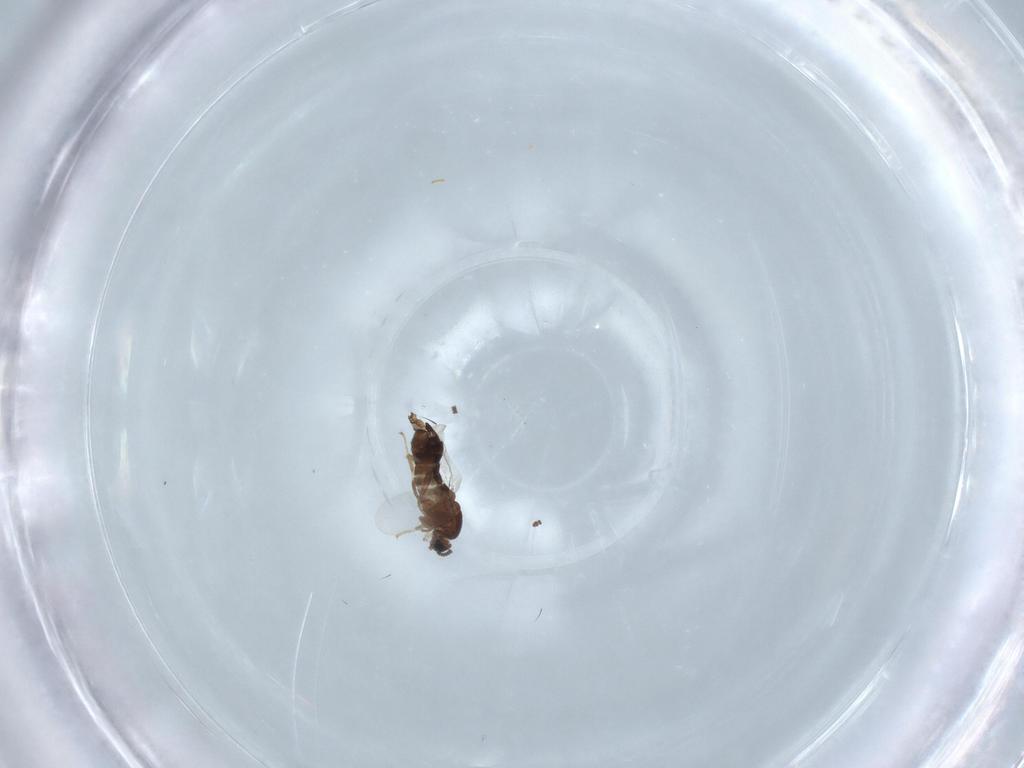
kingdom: Animalia
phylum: Arthropoda
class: Insecta
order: Diptera
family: Scatopsidae
